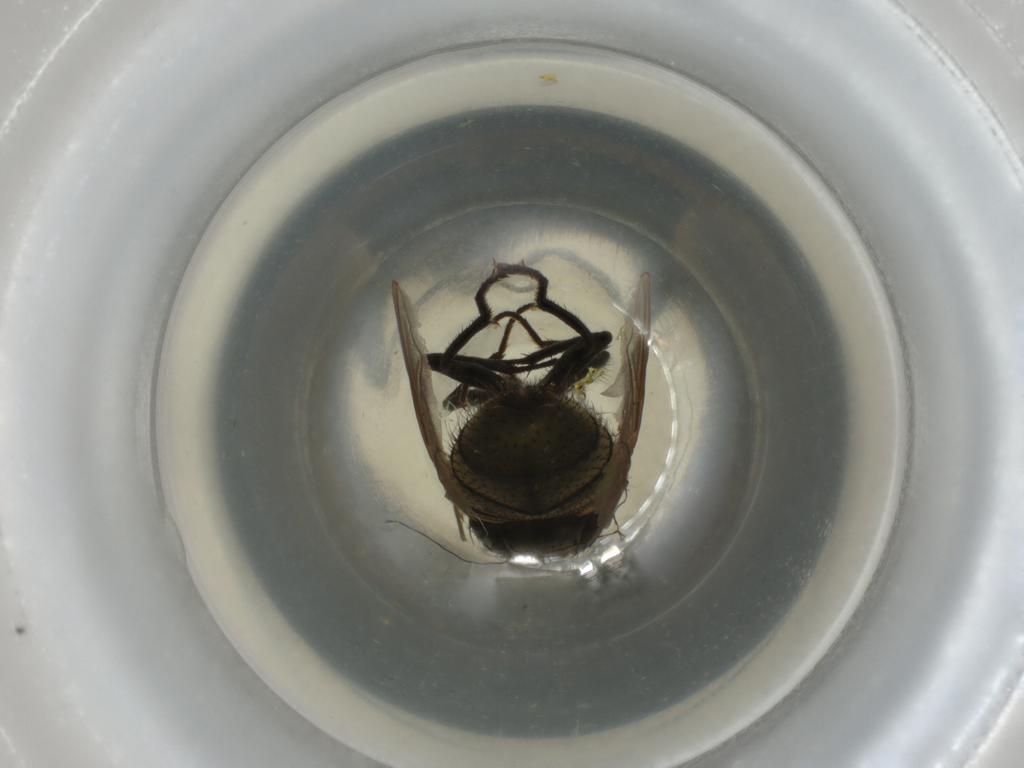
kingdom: Animalia
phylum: Arthropoda
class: Insecta
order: Diptera
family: Muscidae
